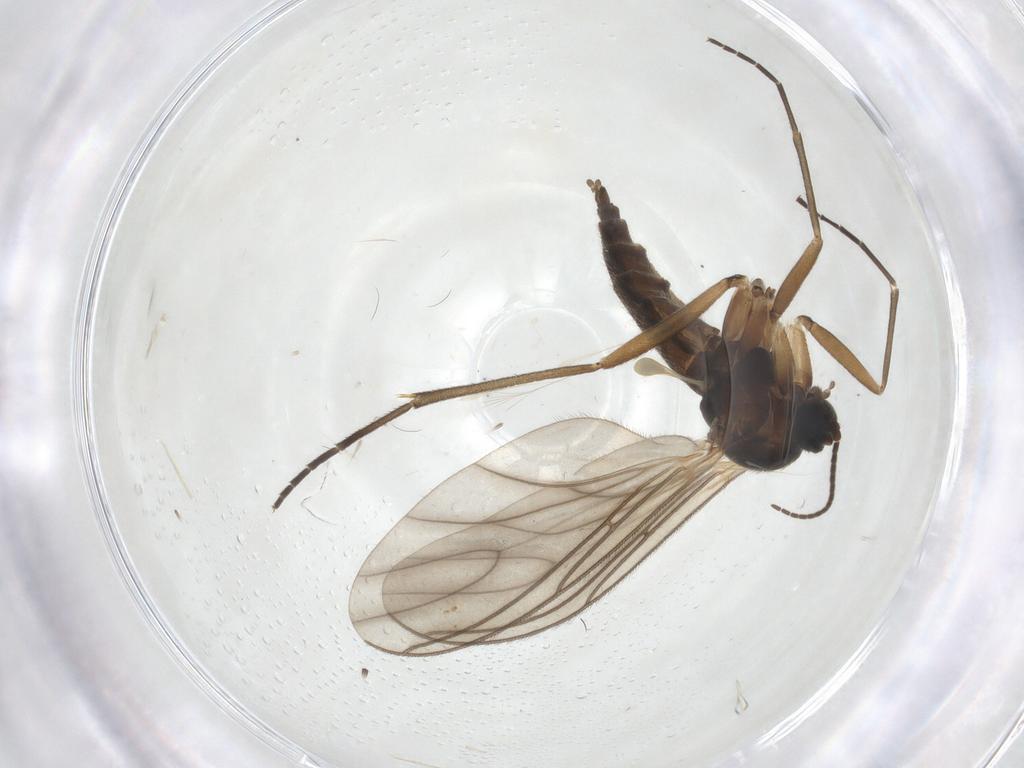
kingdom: Animalia
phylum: Arthropoda
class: Insecta
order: Diptera
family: Sciaridae
